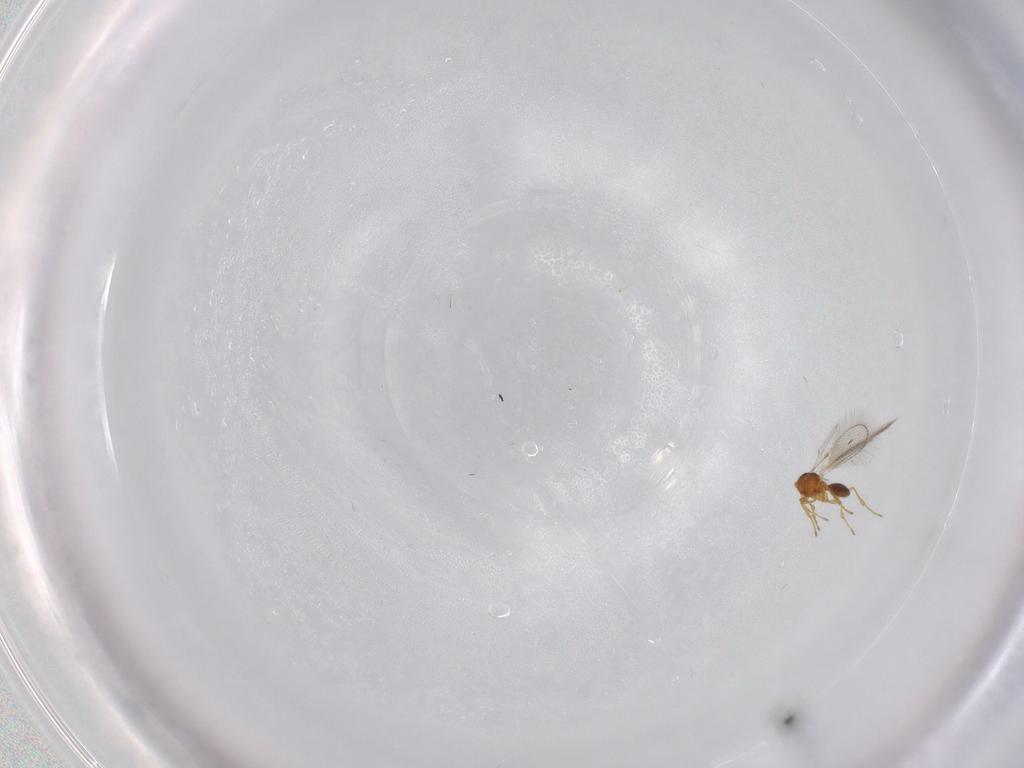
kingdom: Animalia
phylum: Arthropoda
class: Insecta
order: Hymenoptera
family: Diapriidae
